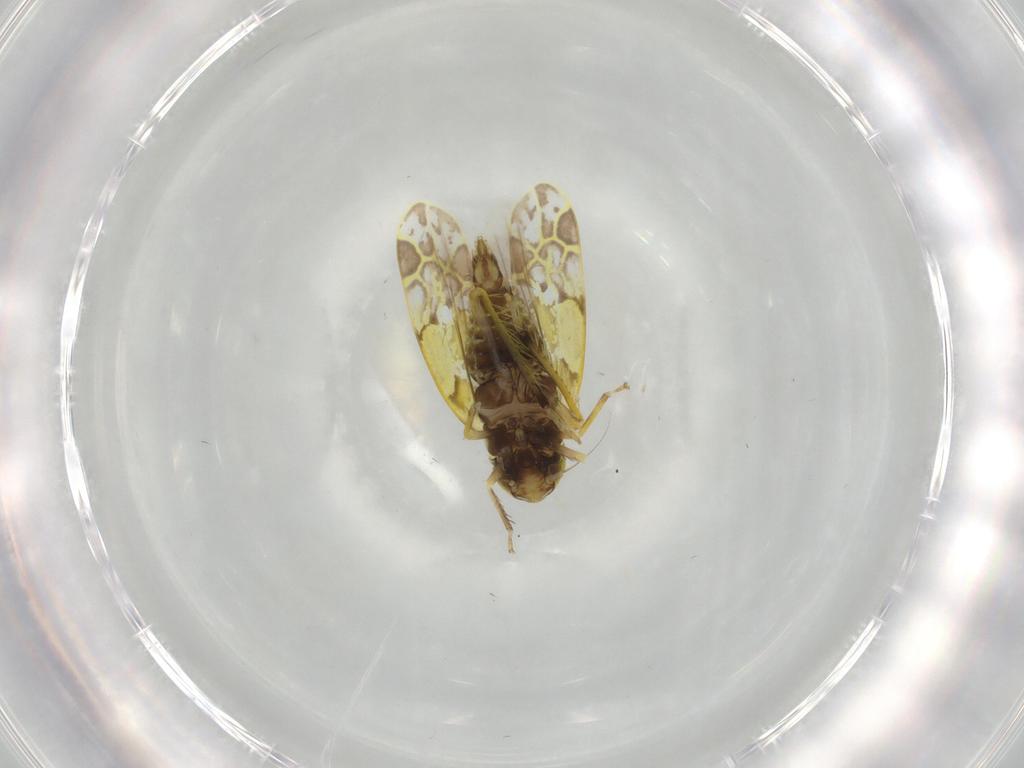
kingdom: Animalia
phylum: Arthropoda
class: Insecta
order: Hemiptera
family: Cicadellidae
